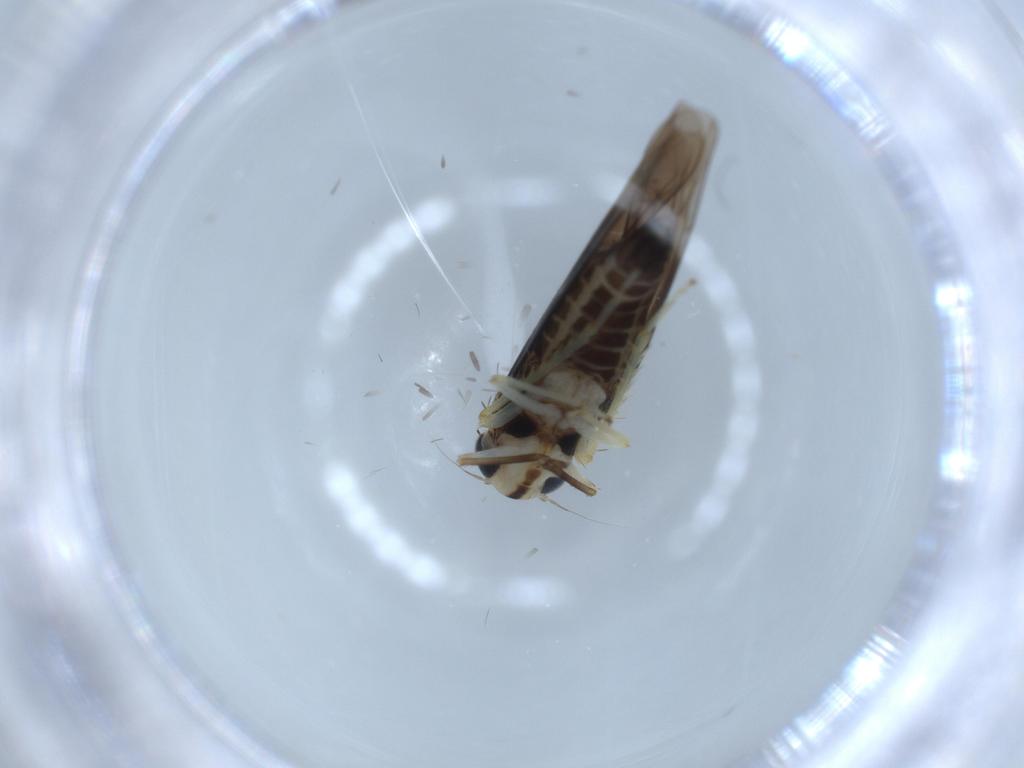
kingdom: Animalia
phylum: Arthropoda
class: Insecta
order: Hemiptera
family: Cicadellidae
